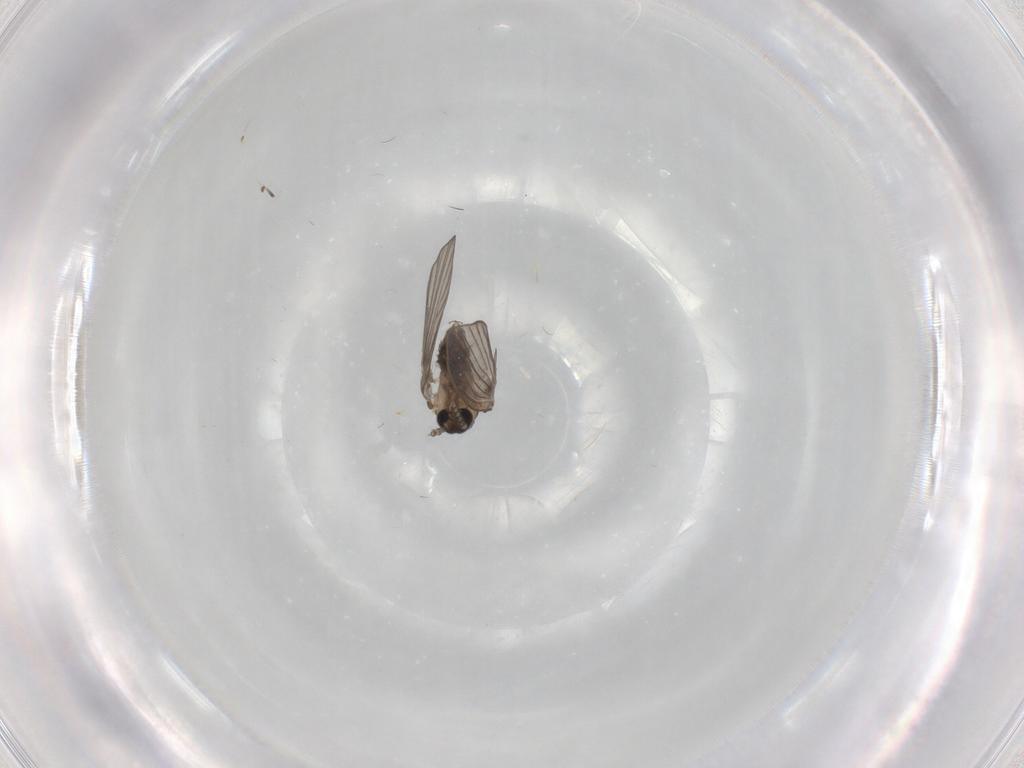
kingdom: Animalia
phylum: Arthropoda
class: Insecta
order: Diptera
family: Psychodidae
